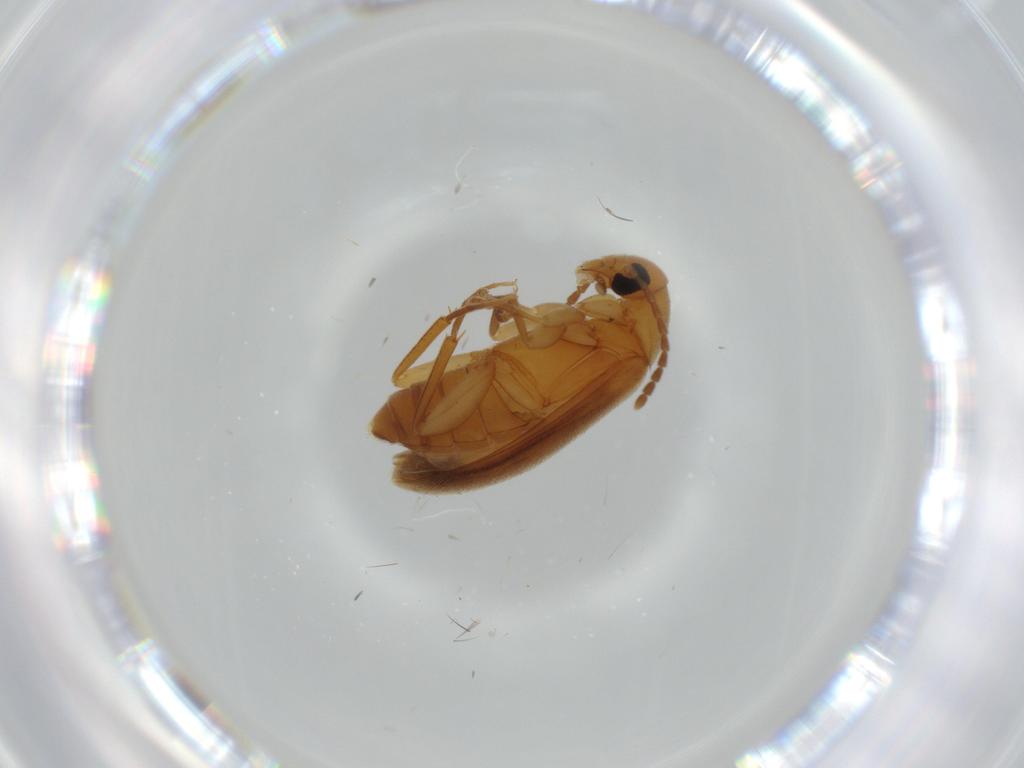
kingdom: Animalia
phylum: Arthropoda
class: Insecta
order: Coleoptera
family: Scraptiidae
